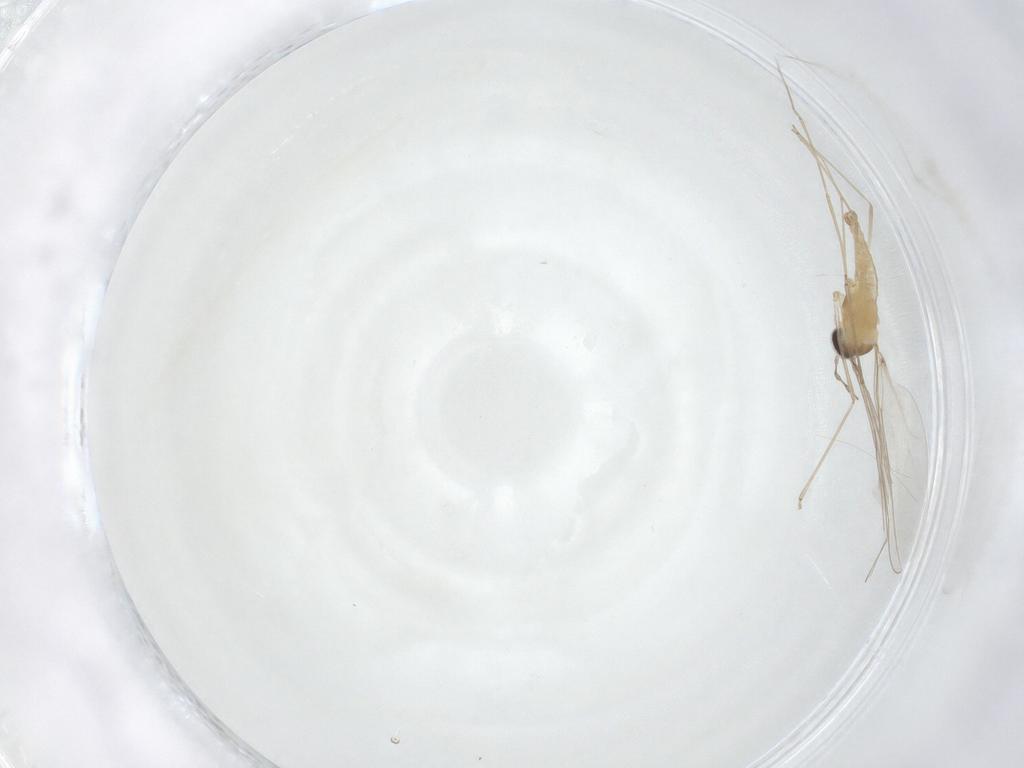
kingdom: Animalia
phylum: Arthropoda
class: Insecta
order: Diptera
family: Cecidomyiidae
